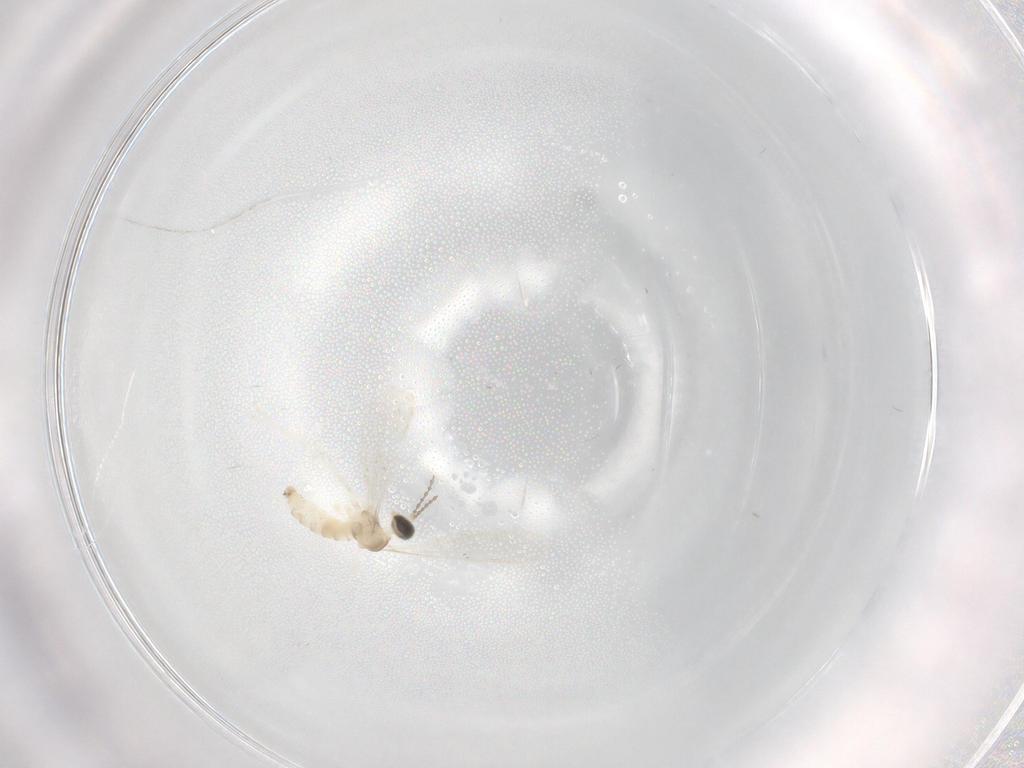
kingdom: Animalia
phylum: Arthropoda
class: Insecta
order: Diptera
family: Cecidomyiidae
